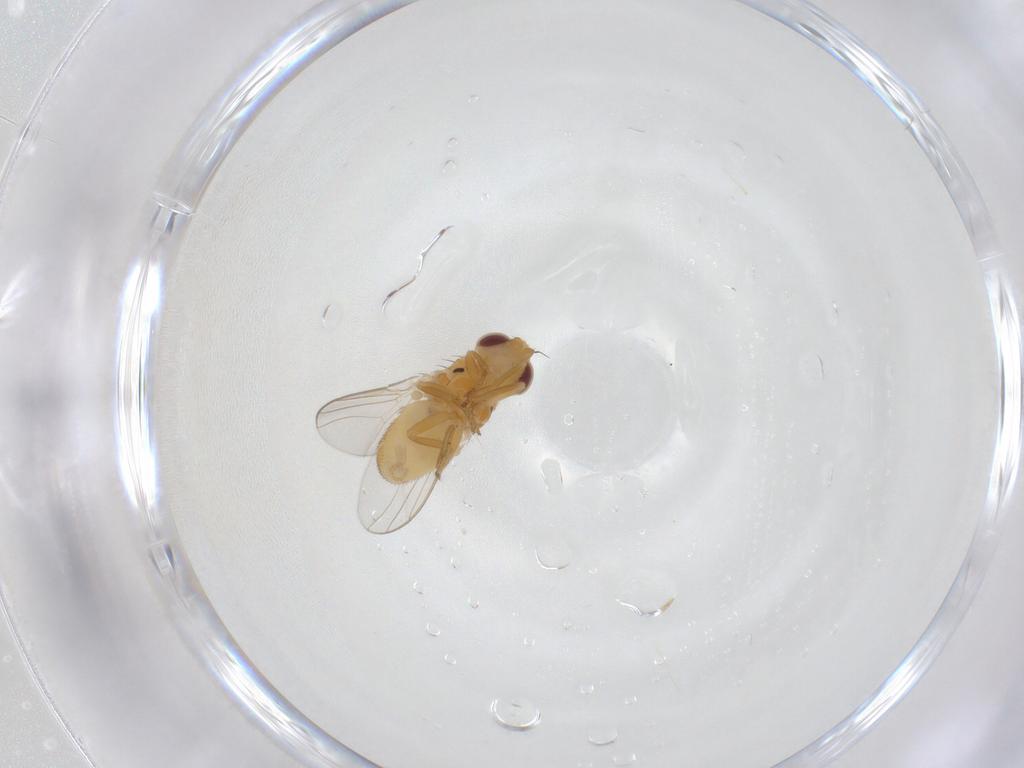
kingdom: Animalia
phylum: Arthropoda
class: Insecta
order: Diptera
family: Chloropidae
